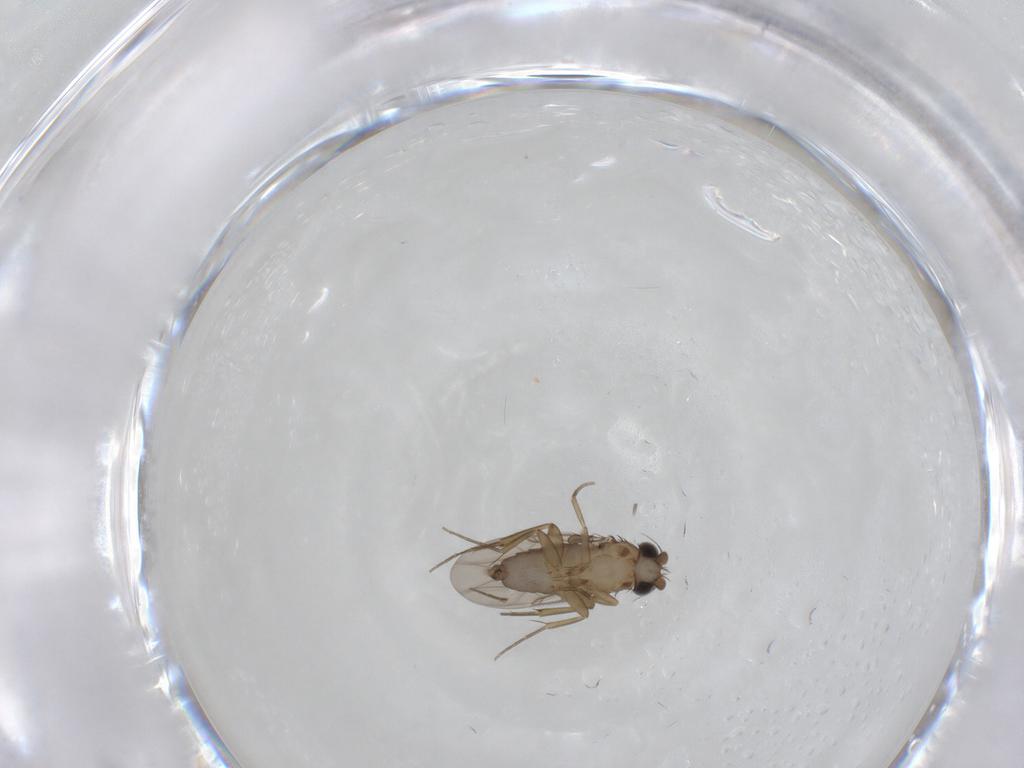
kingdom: Animalia
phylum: Arthropoda
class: Insecta
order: Diptera
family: Phoridae
